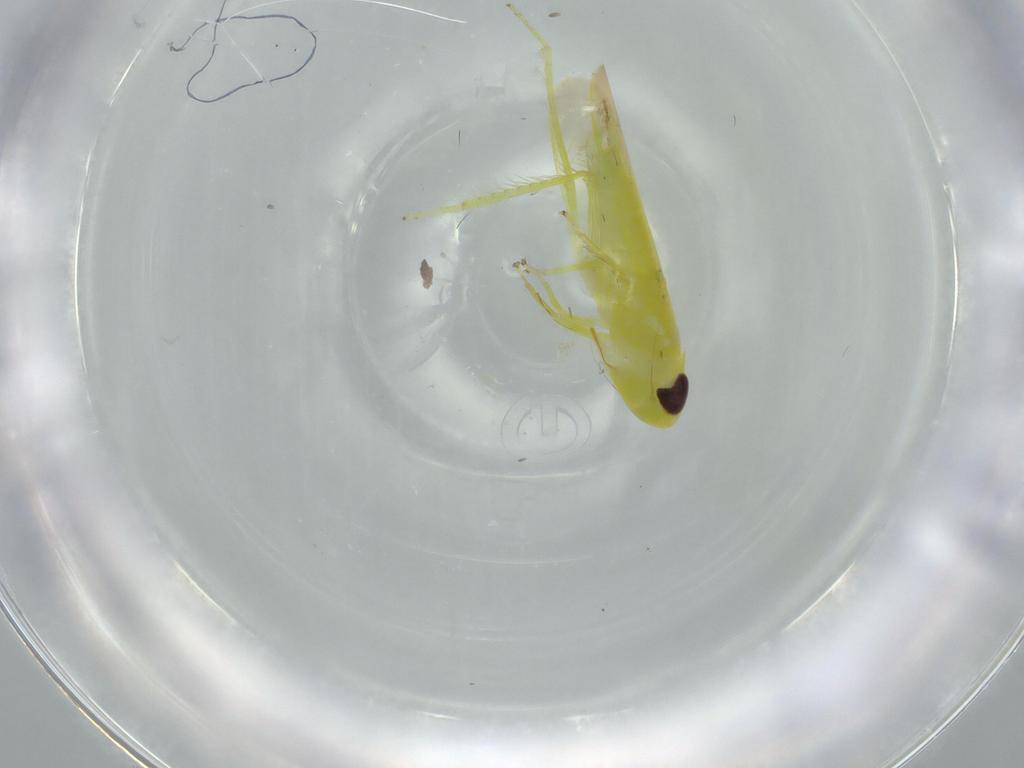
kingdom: Animalia
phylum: Arthropoda
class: Insecta
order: Hemiptera
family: Cicadellidae
